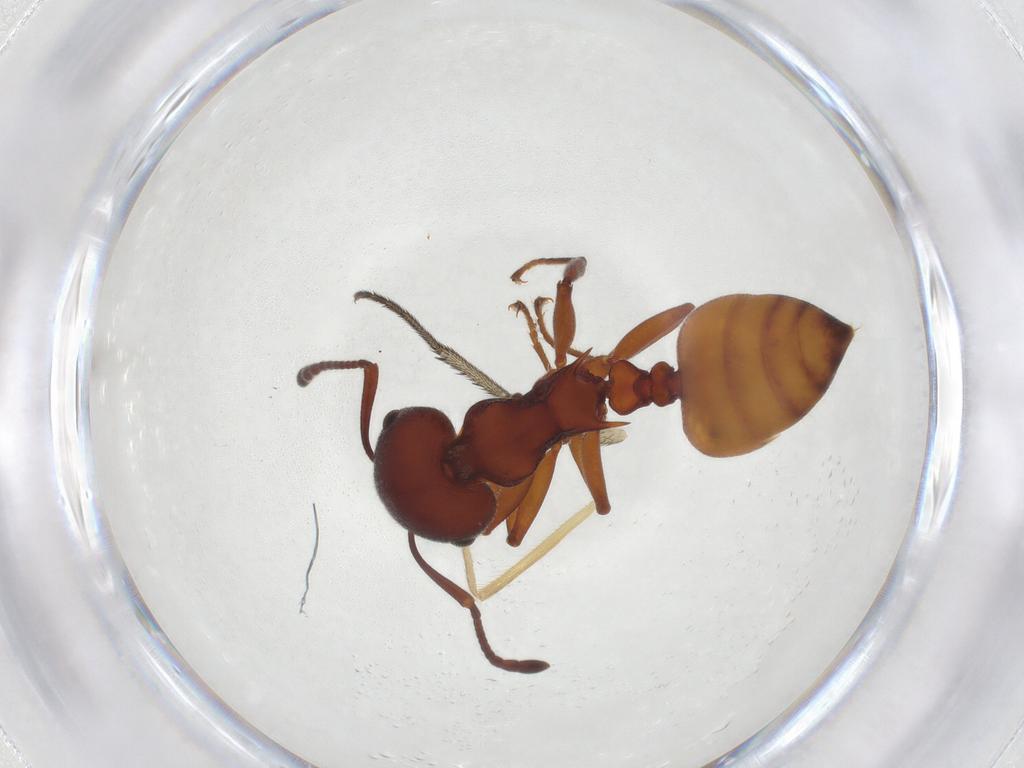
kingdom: Animalia
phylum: Arthropoda
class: Insecta
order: Hymenoptera
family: Formicidae
